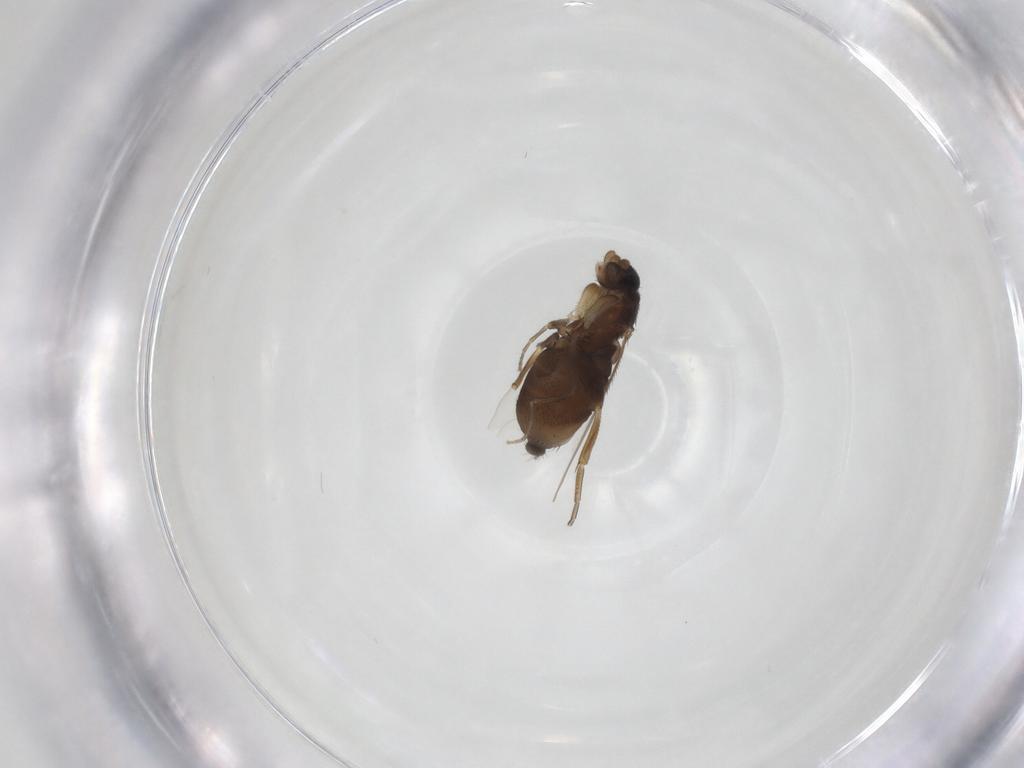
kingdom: Animalia
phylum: Arthropoda
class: Insecta
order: Diptera
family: Phoridae
